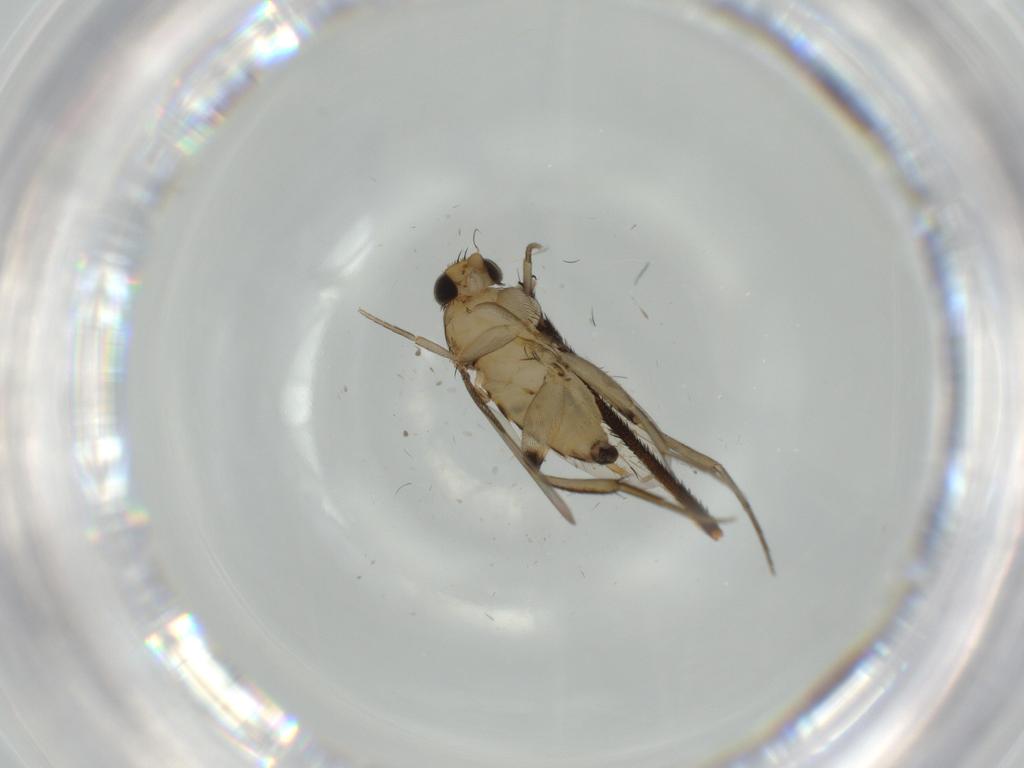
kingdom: Animalia
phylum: Arthropoda
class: Insecta
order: Diptera
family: Phoridae
